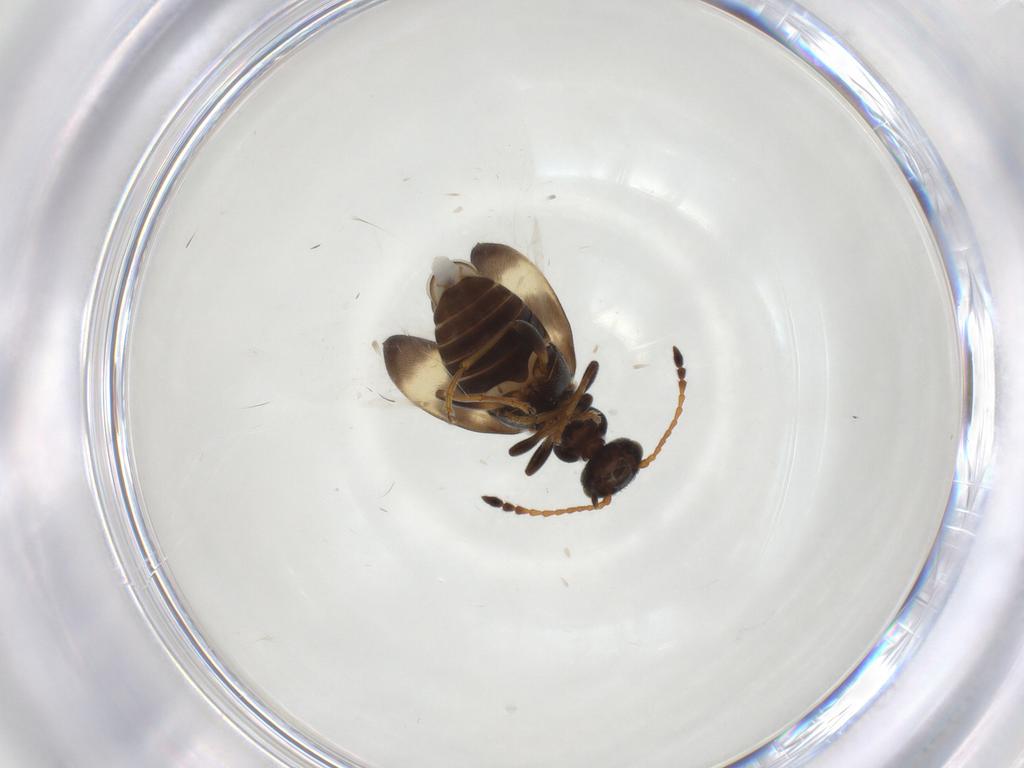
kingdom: Animalia
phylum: Arthropoda
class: Insecta
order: Coleoptera
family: Anthicidae
